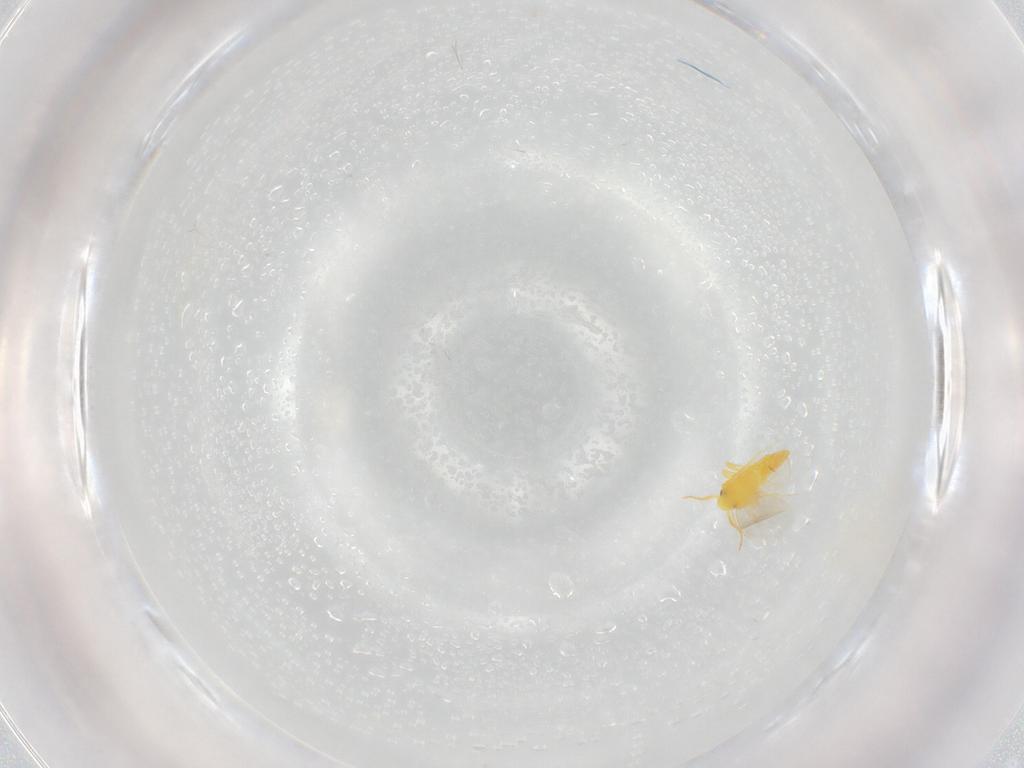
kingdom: Animalia
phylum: Arthropoda
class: Insecta
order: Hemiptera
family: Aleyrodidae
